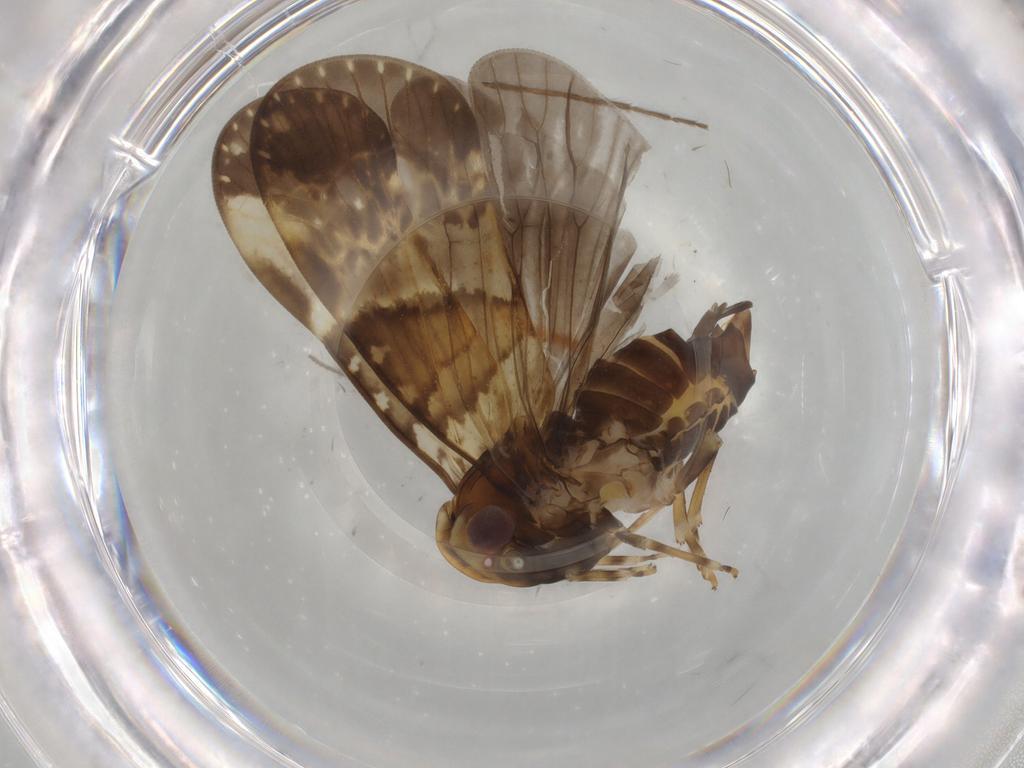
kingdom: Animalia
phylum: Arthropoda
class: Insecta
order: Hemiptera
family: Cixiidae
